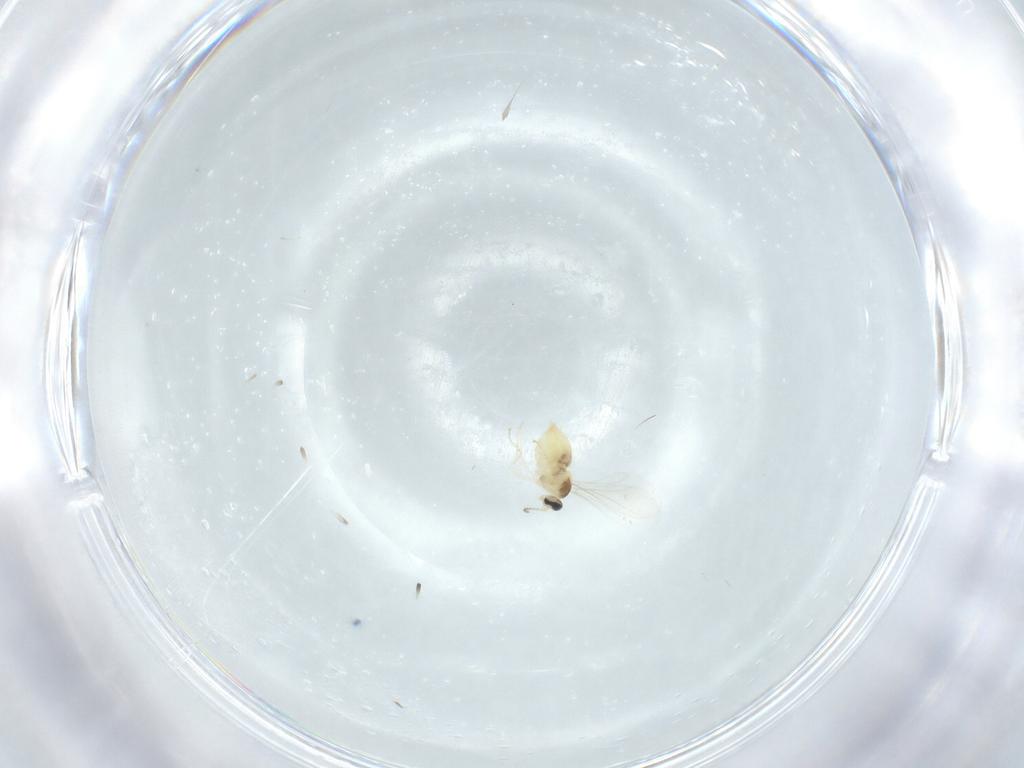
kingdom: Animalia
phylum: Arthropoda
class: Insecta
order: Diptera
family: Cecidomyiidae
